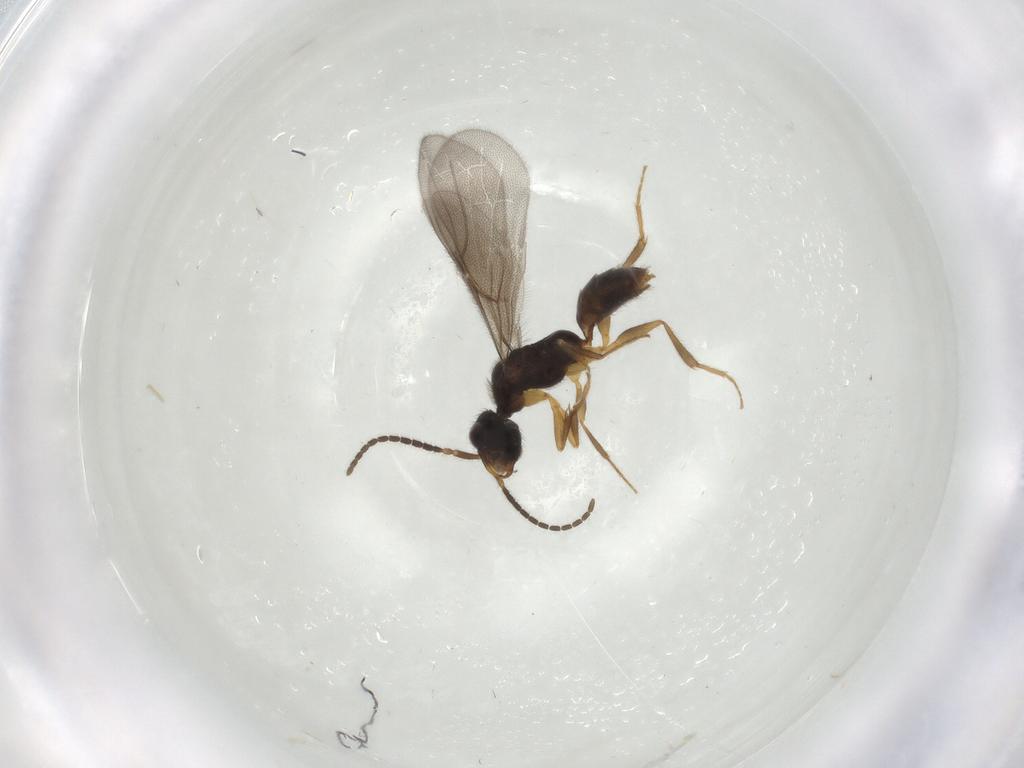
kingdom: Animalia
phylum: Arthropoda
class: Insecta
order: Hymenoptera
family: Bethylidae
